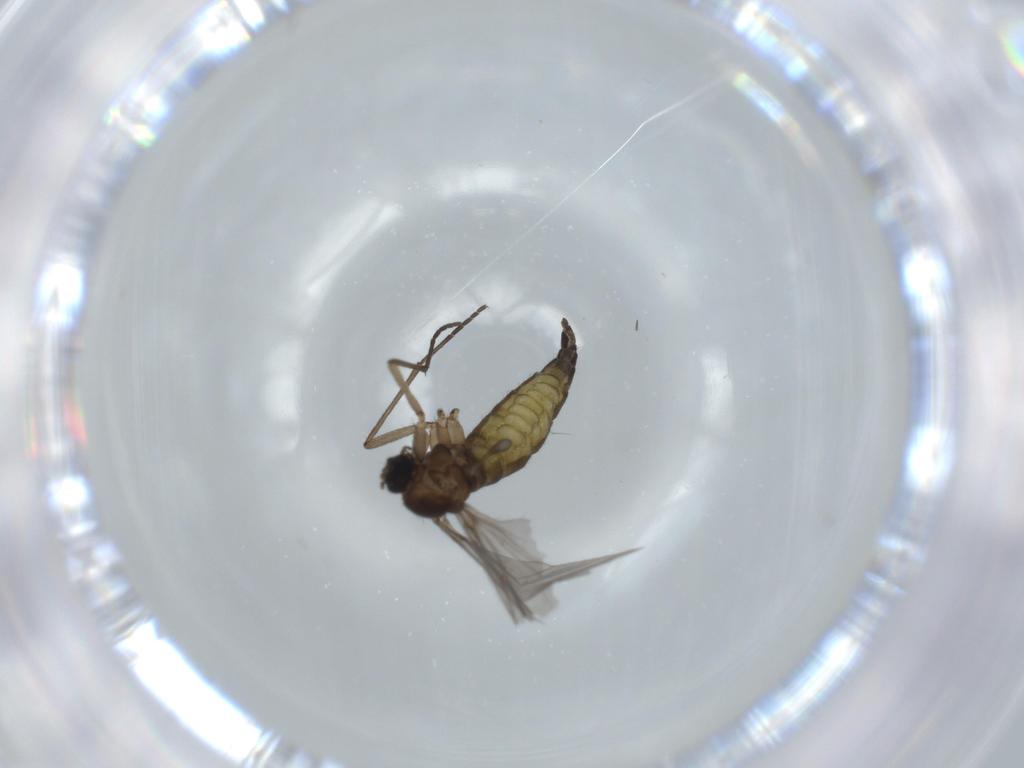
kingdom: Animalia
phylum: Arthropoda
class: Insecta
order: Diptera
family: Sciaridae
